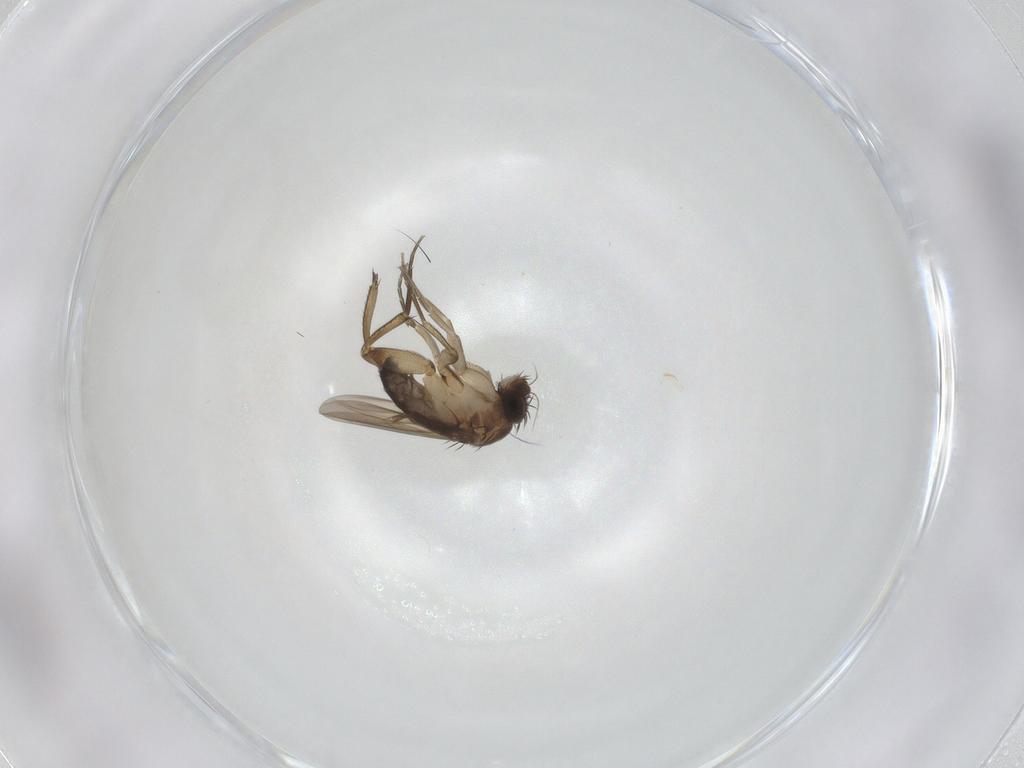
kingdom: Animalia
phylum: Arthropoda
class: Insecta
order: Diptera
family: Phoridae
